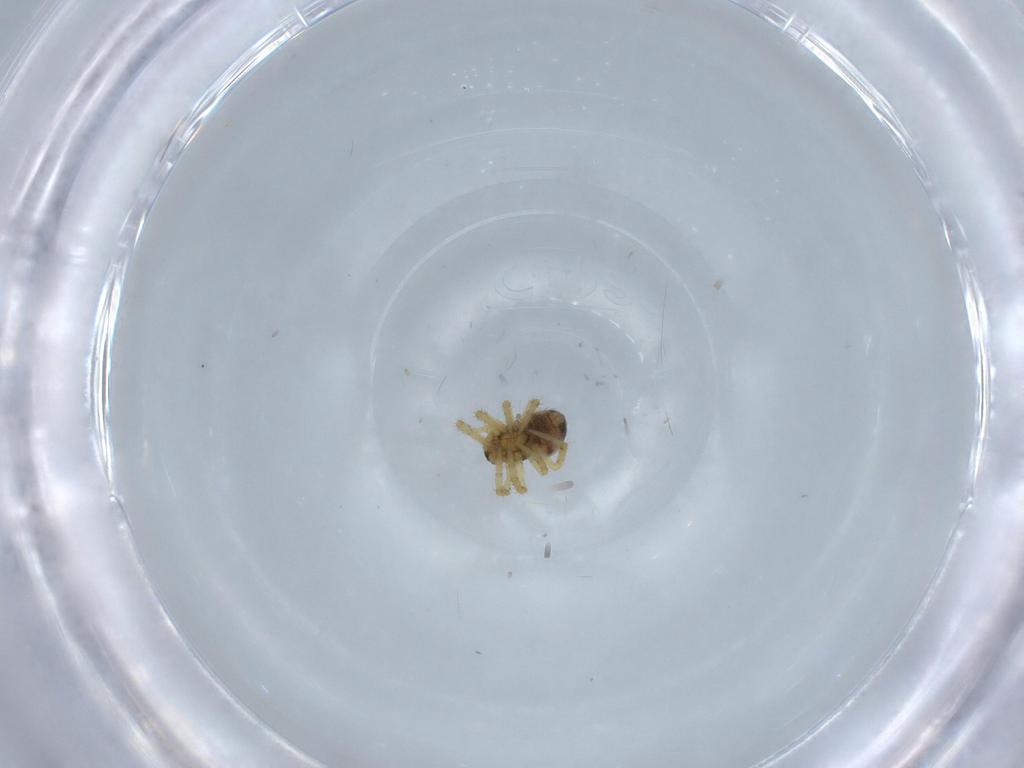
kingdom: Animalia
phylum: Arthropoda
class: Arachnida
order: Araneae
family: Theridiidae
